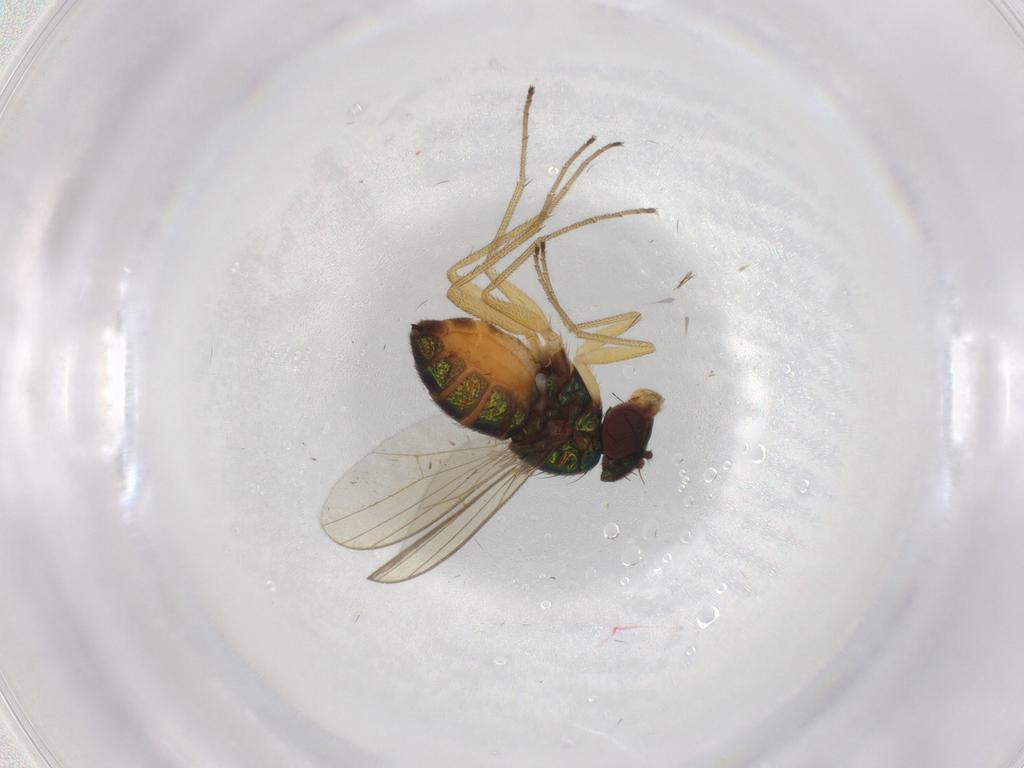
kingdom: Animalia
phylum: Arthropoda
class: Insecta
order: Diptera
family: Dolichopodidae
